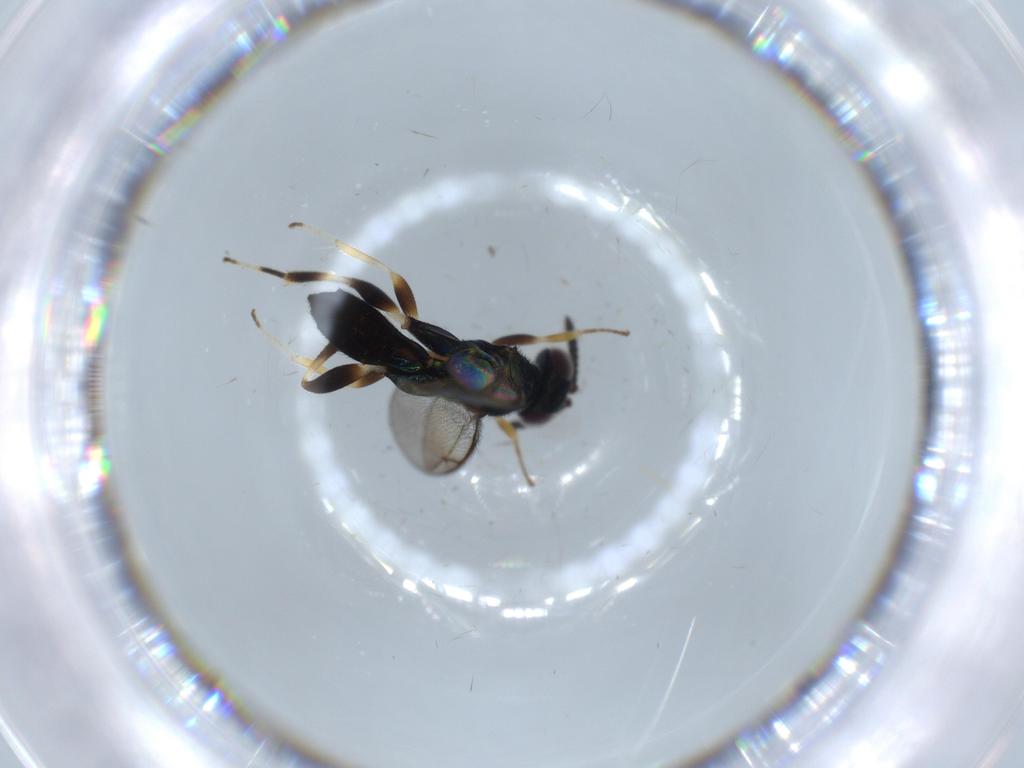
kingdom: Animalia
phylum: Arthropoda
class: Insecta
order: Hymenoptera
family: Cleonyminae
